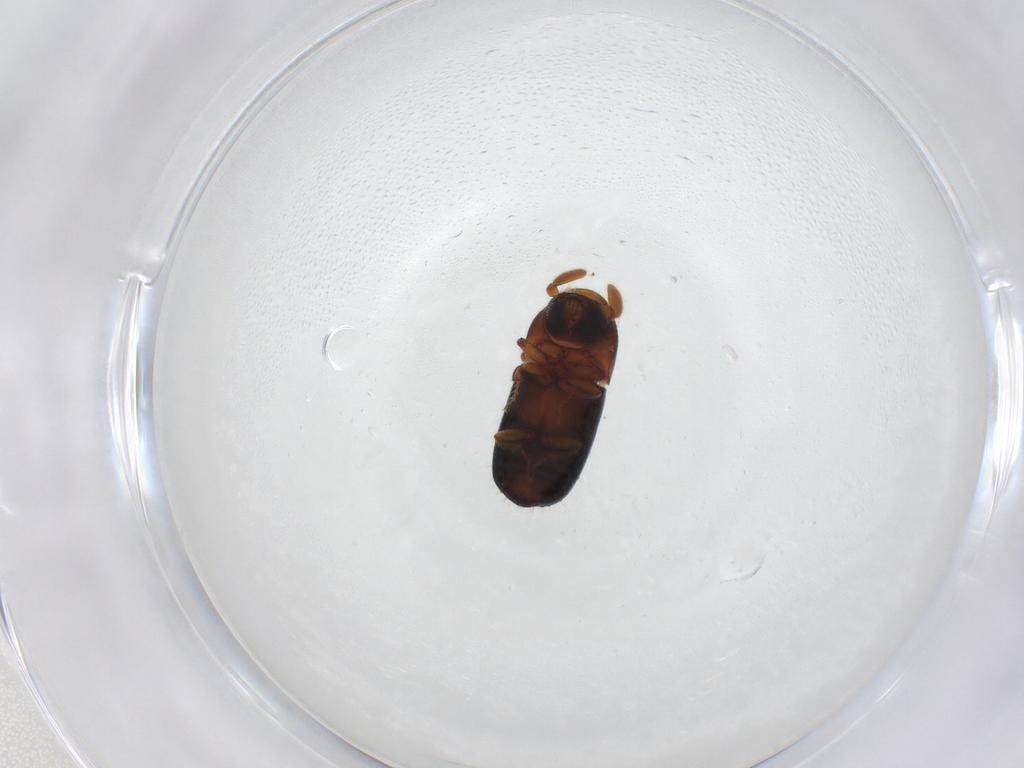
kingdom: Animalia
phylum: Arthropoda
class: Insecta
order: Coleoptera
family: Curculionidae
